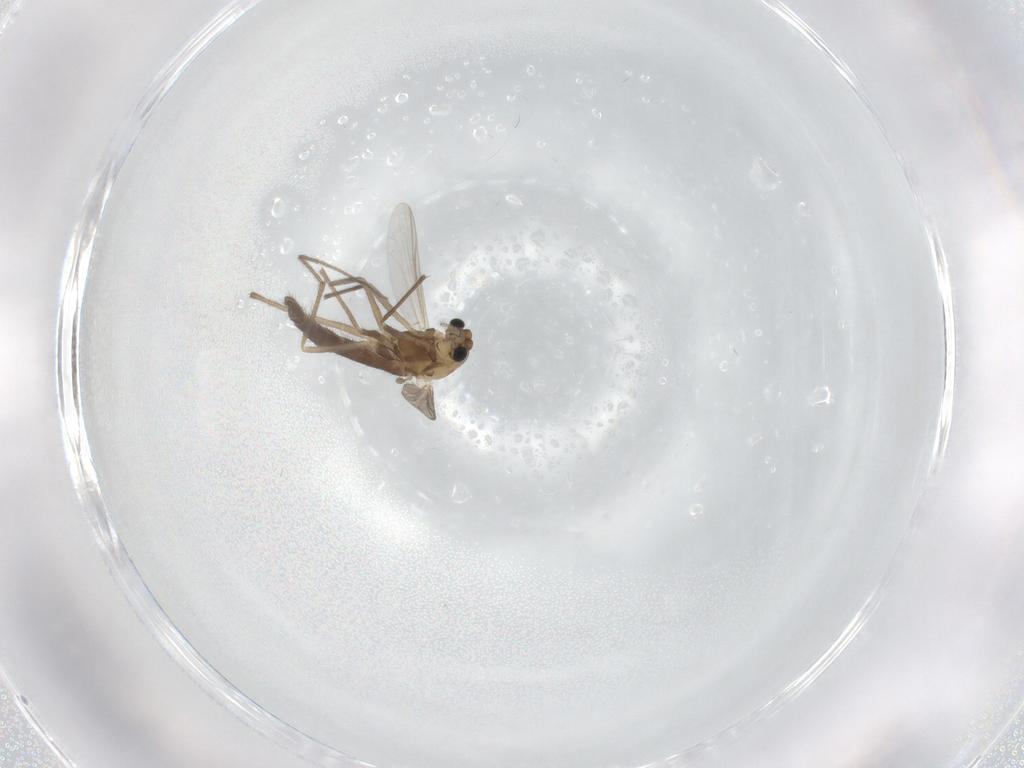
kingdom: Animalia
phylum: Arthropoda
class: Insecta
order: Diptera
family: Chironomidae
